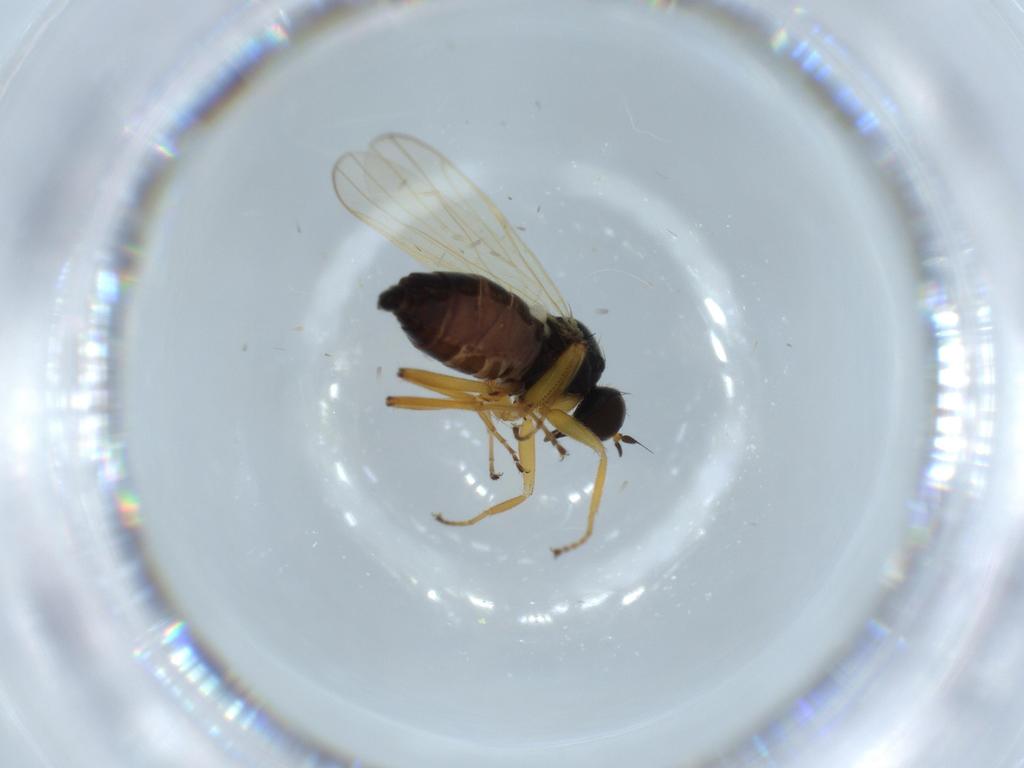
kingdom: Animalia
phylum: Arthropoda
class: Insecta
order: Diptera
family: Hybotidae
